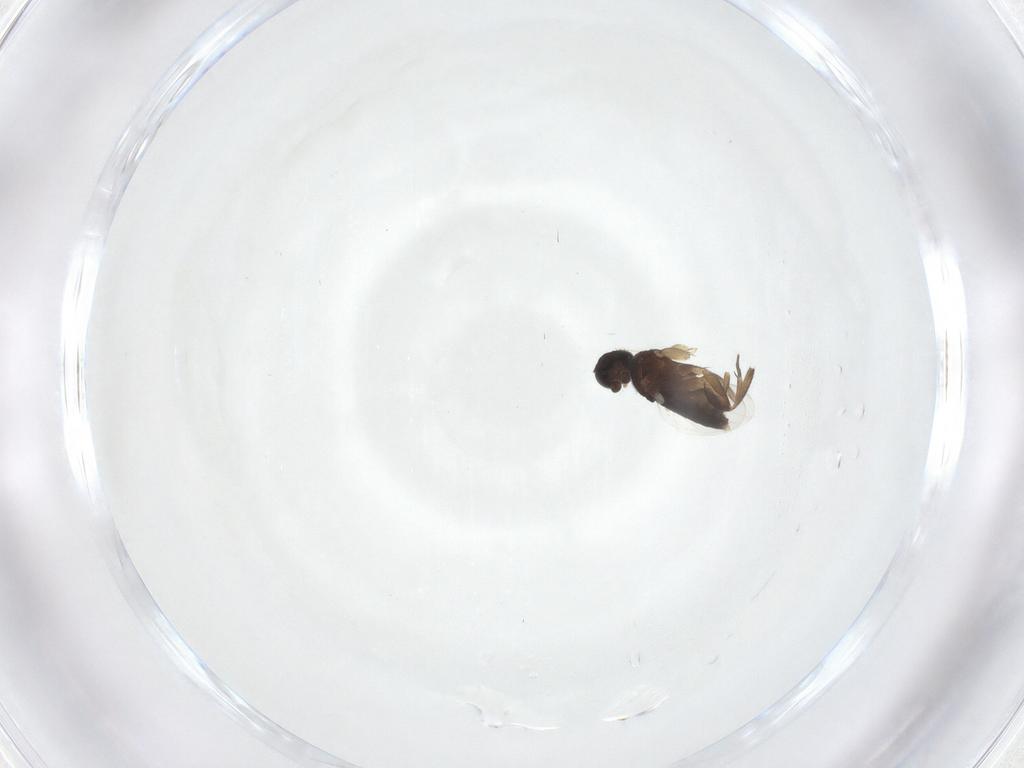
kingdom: Animalia
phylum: Arthropoda
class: Insecta
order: Diptera
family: Phoridae
